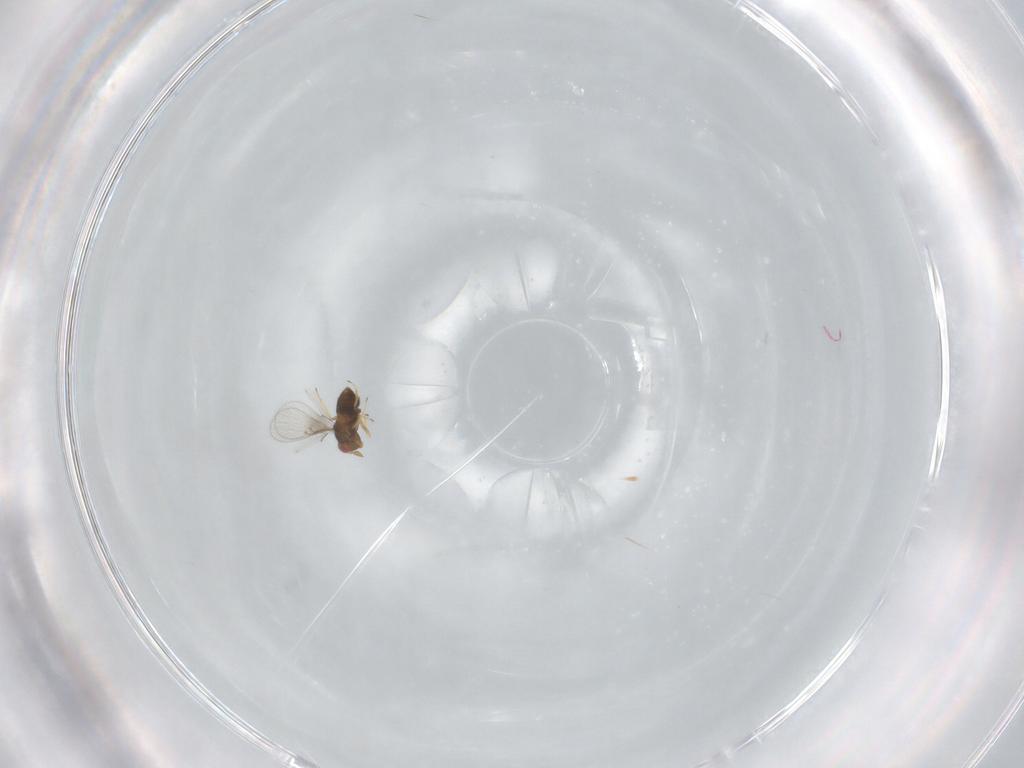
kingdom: Animalia
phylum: Arthropoda
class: Insecta
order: Hymenoptera
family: Trichogrammatidae
